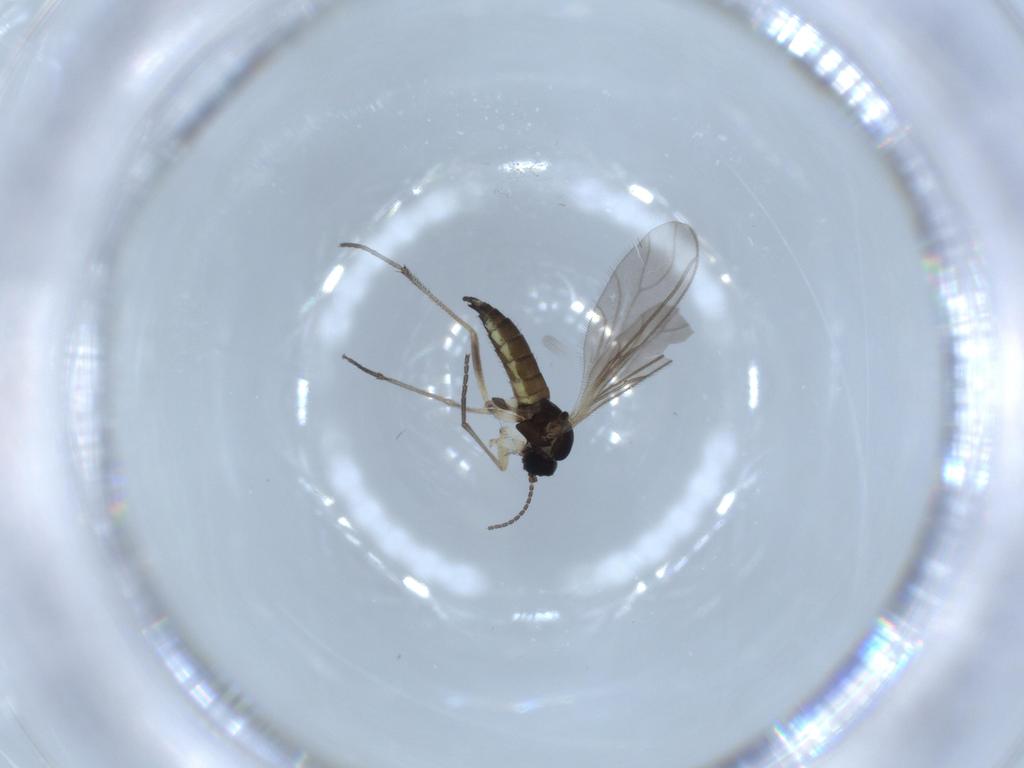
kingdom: Animalia
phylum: Arthropoda
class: Insecta
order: Diptera
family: Sciaridae
